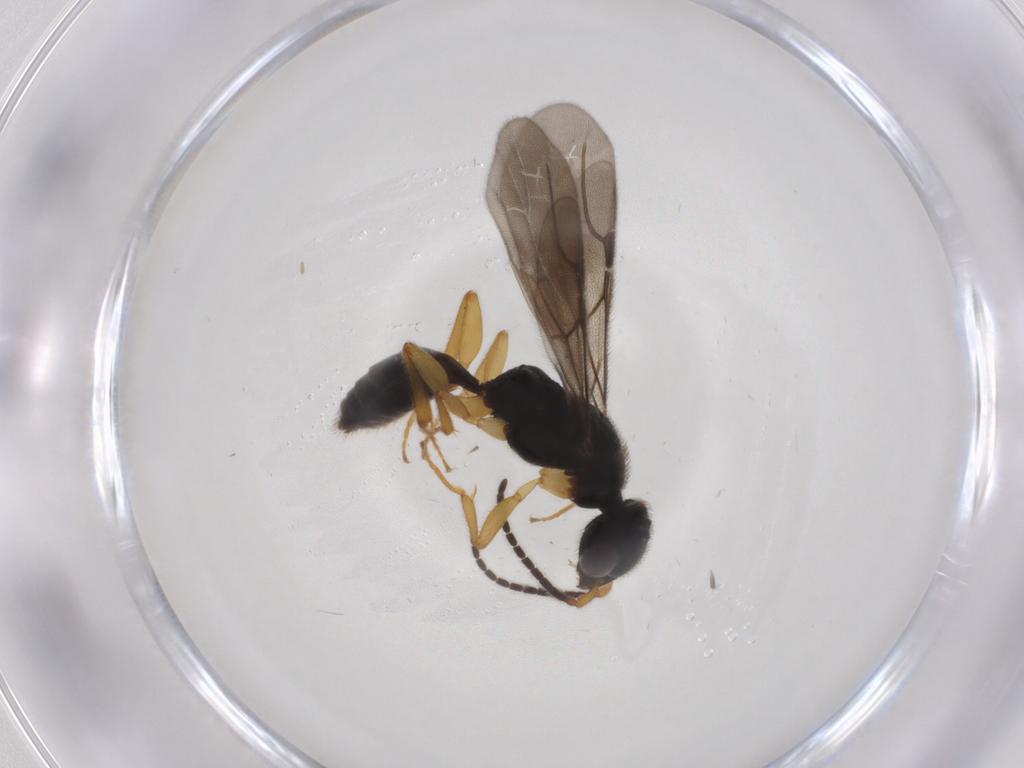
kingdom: Animalia
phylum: Arthropoda
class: Insecta
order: Hymenoptera
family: Bethylidae
